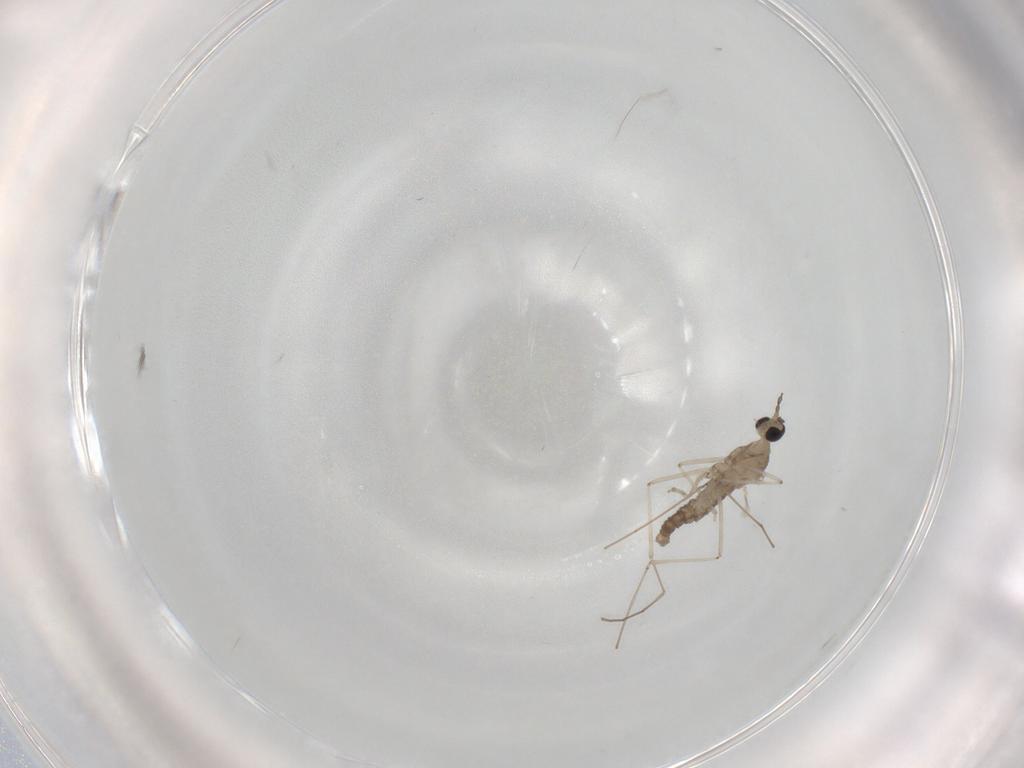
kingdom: Animalia
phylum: Arthropoda
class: Insecta
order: Diptera
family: Cecidomyiidae
